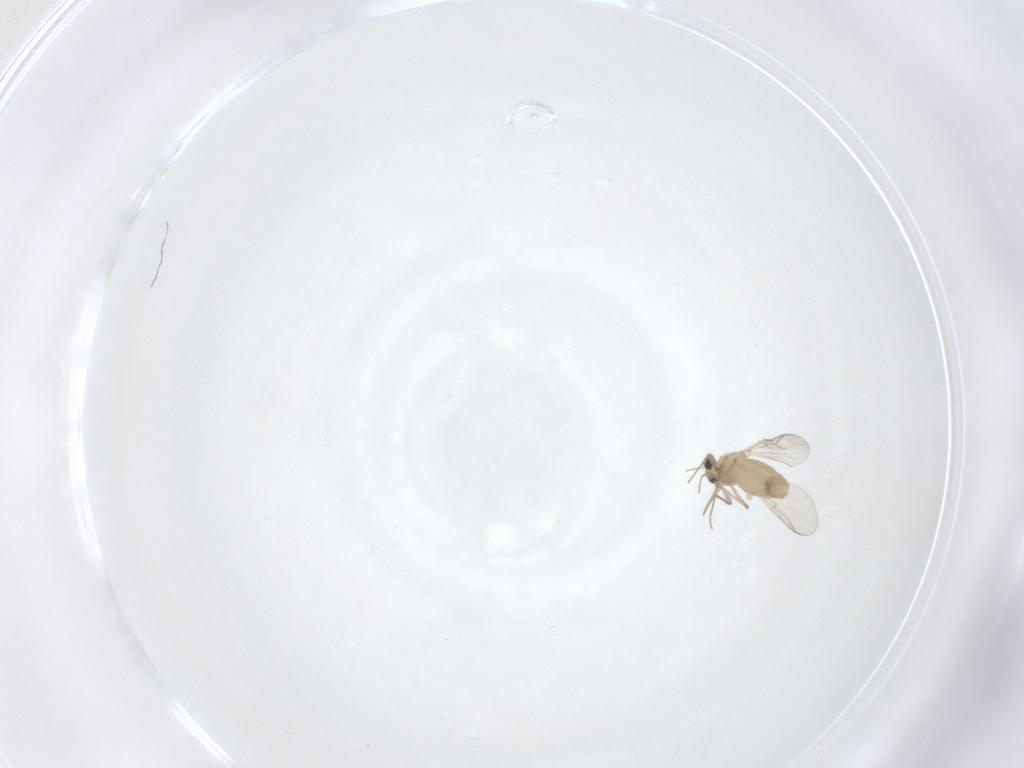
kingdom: Animalia
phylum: Arthropoda
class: Insecta
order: Diptera
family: Chironomidae
